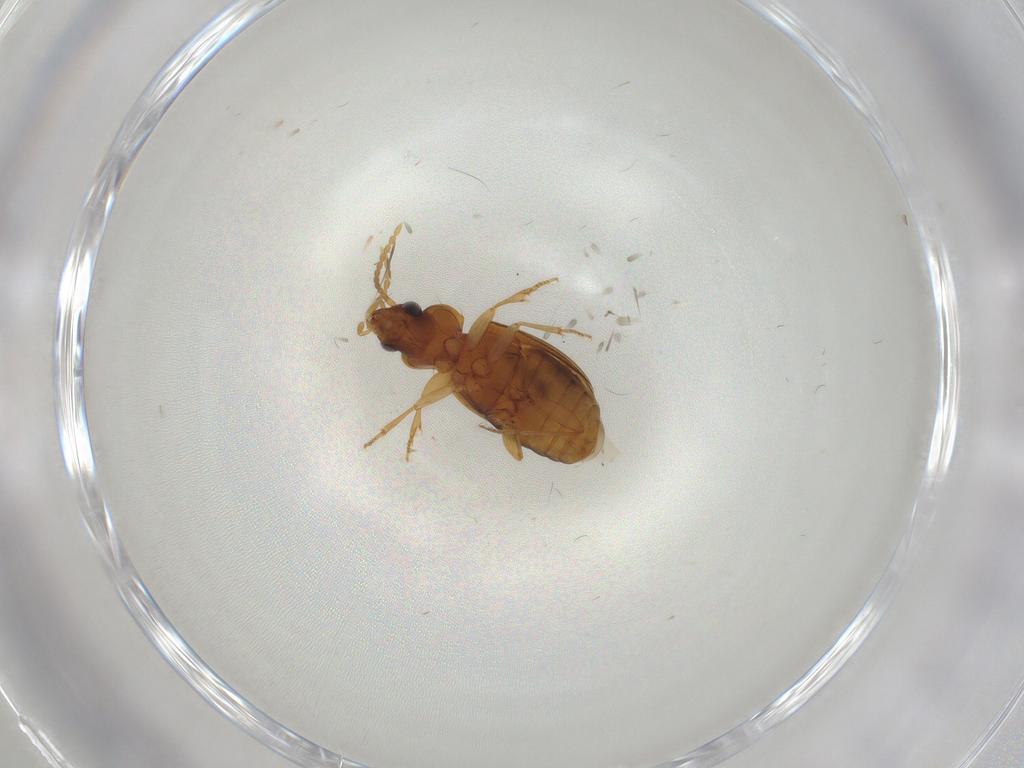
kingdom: Animalia
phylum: Arthropoda
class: Insecta
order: Coleoptera
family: Carabidae
